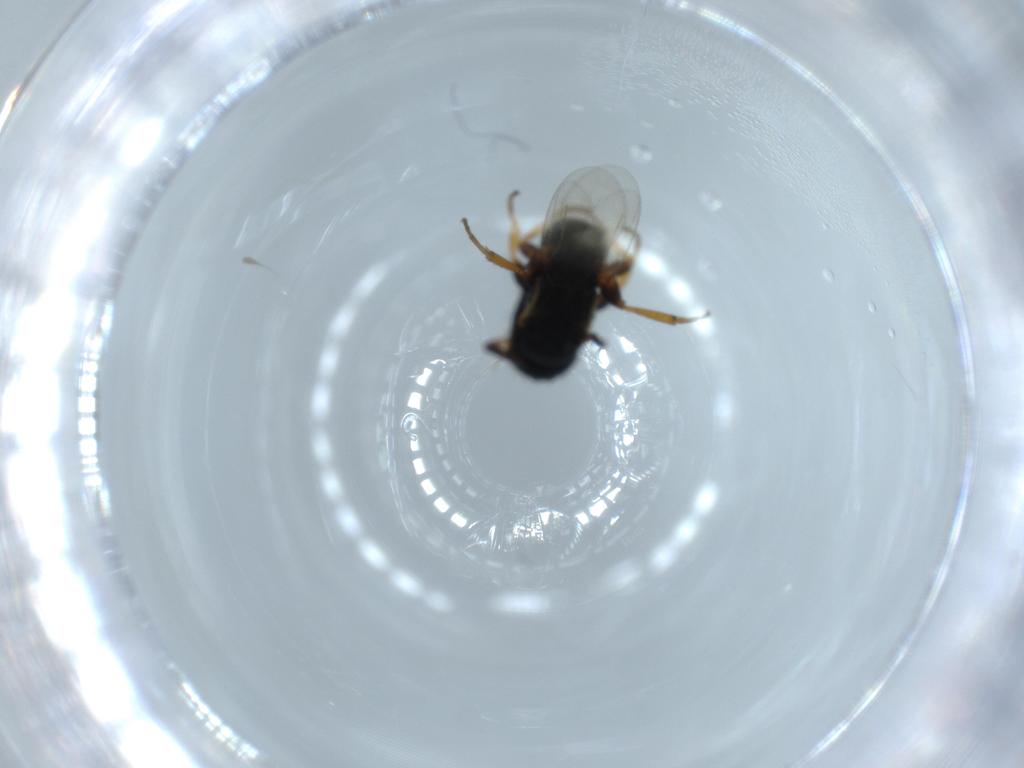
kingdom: Animalia
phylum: Arthropoda
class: Insecta
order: Hymenoptera
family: Bethylidae
